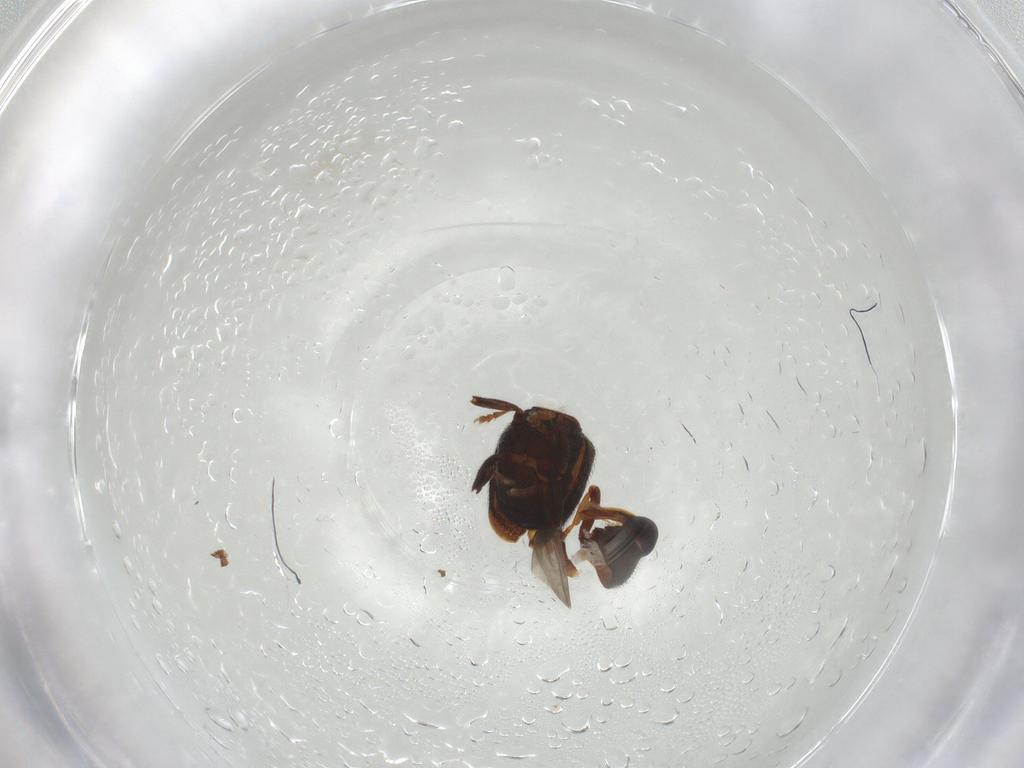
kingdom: Animalia
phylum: Arthropoda
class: Insecta
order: Coleoptera
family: Curculionidae
